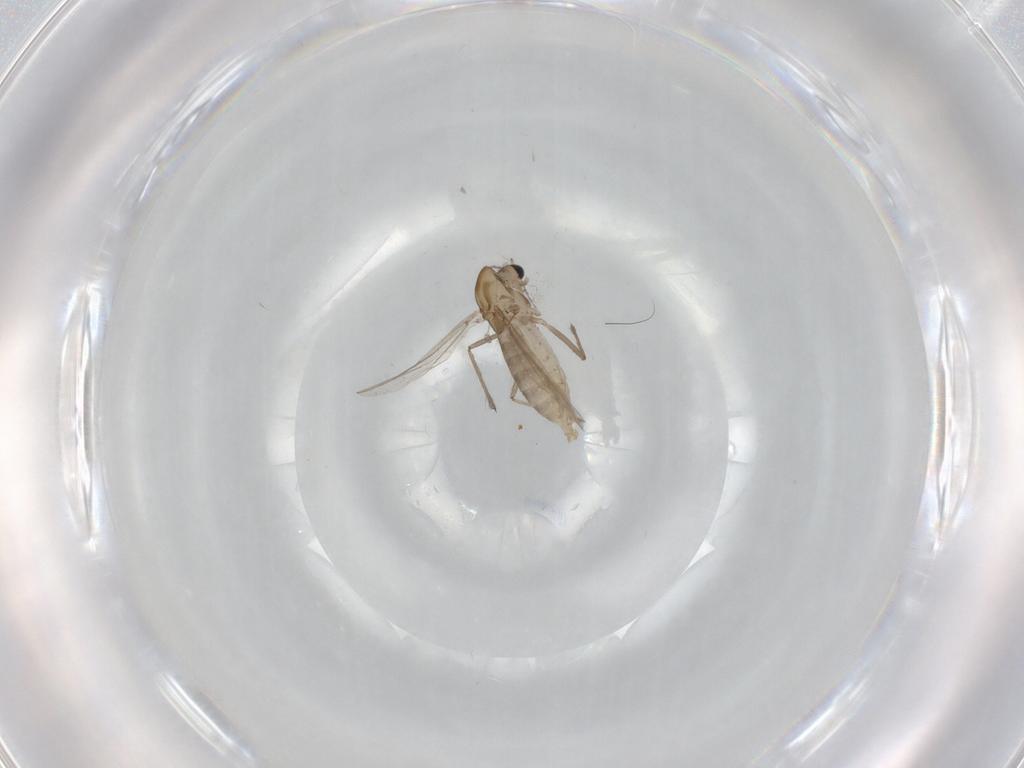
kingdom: Animalia
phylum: Arthropoda
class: Insecta
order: Diptera
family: Chironomidae
